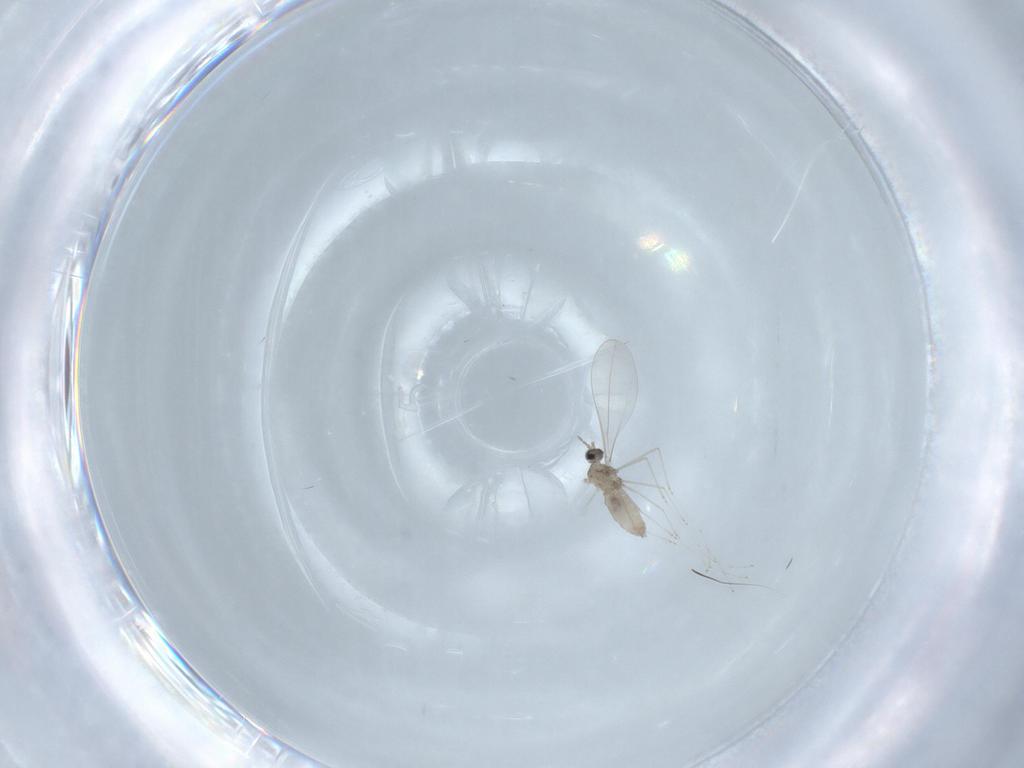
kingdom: Animalia
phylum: Arthropoda
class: Insecta
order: Diptera
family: Cecidomyiidae
